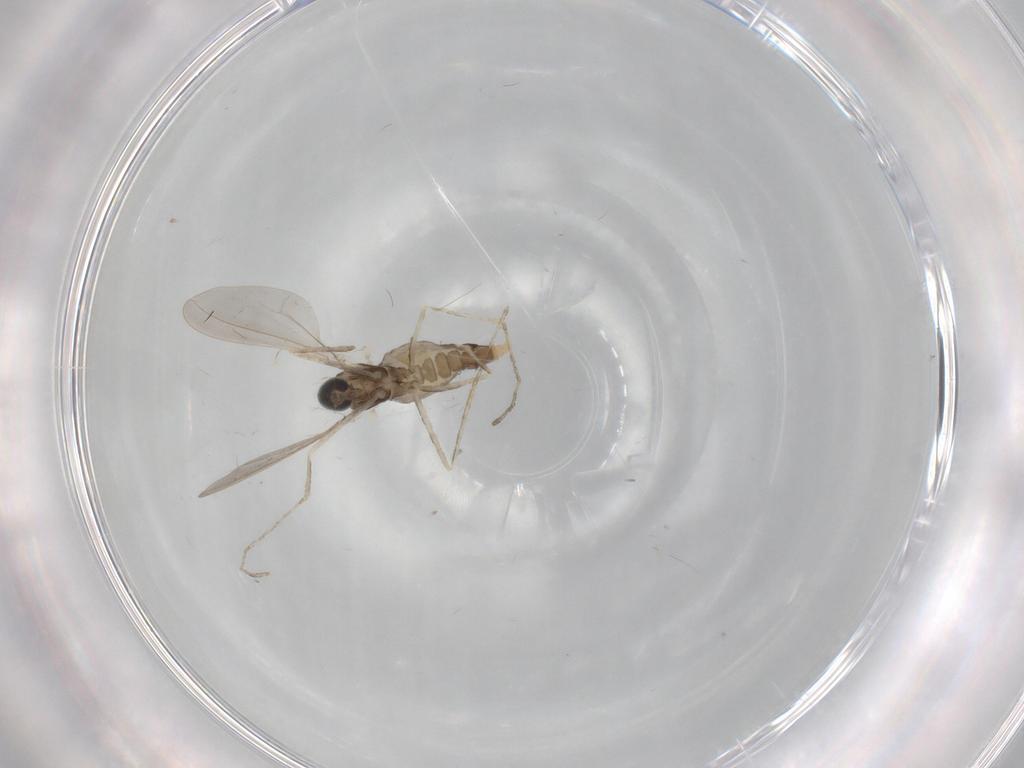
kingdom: Animalia
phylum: Arthropoda
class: Insecta
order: Diptera
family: Cecidomyiidae
